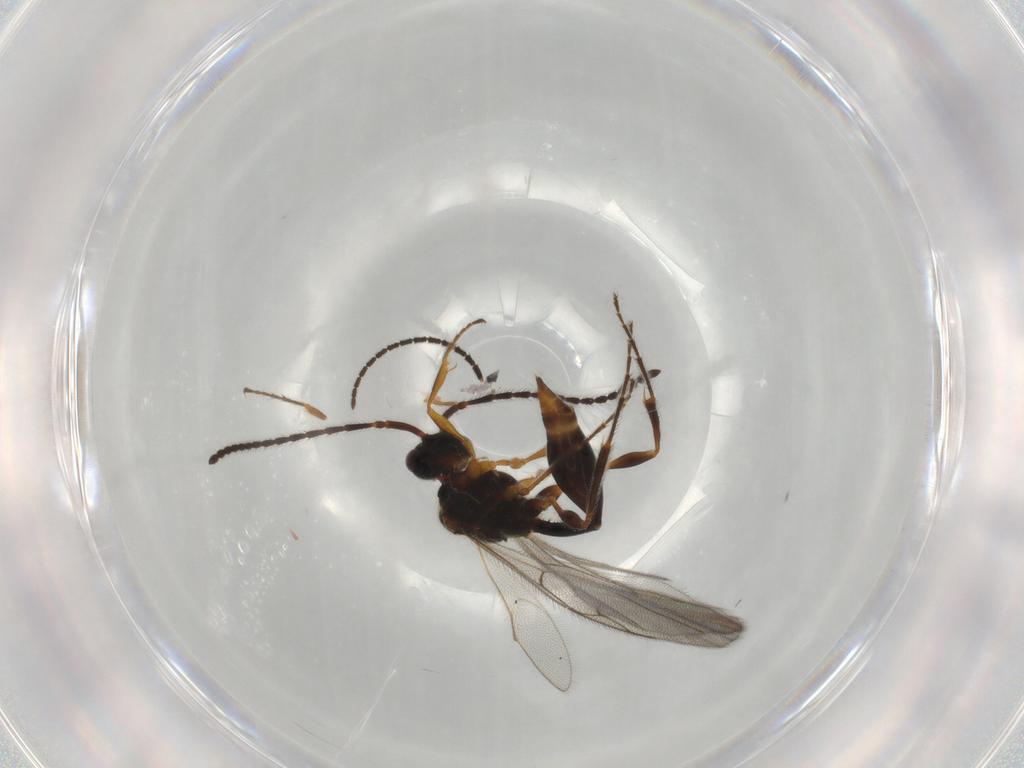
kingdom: Animalia
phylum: Arthropoda
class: Insecta
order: Hymenoptera
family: Diapriidae
